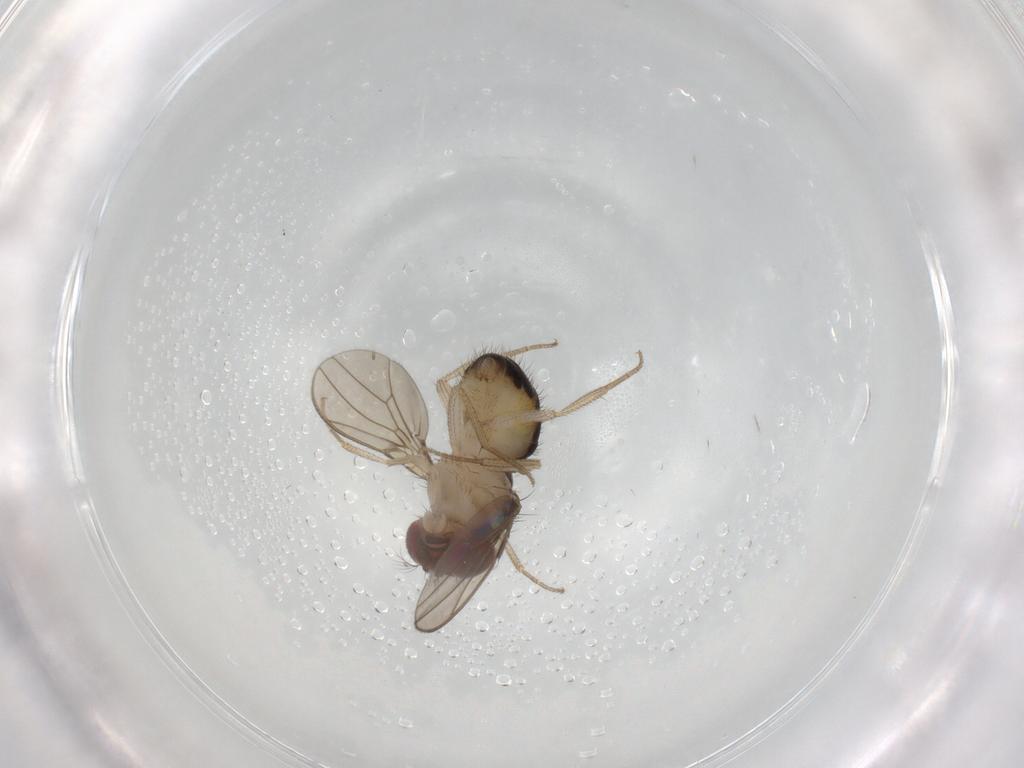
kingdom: Animalia
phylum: Arthropoda
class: Insecta
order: Diptera
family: Drosophilidae
